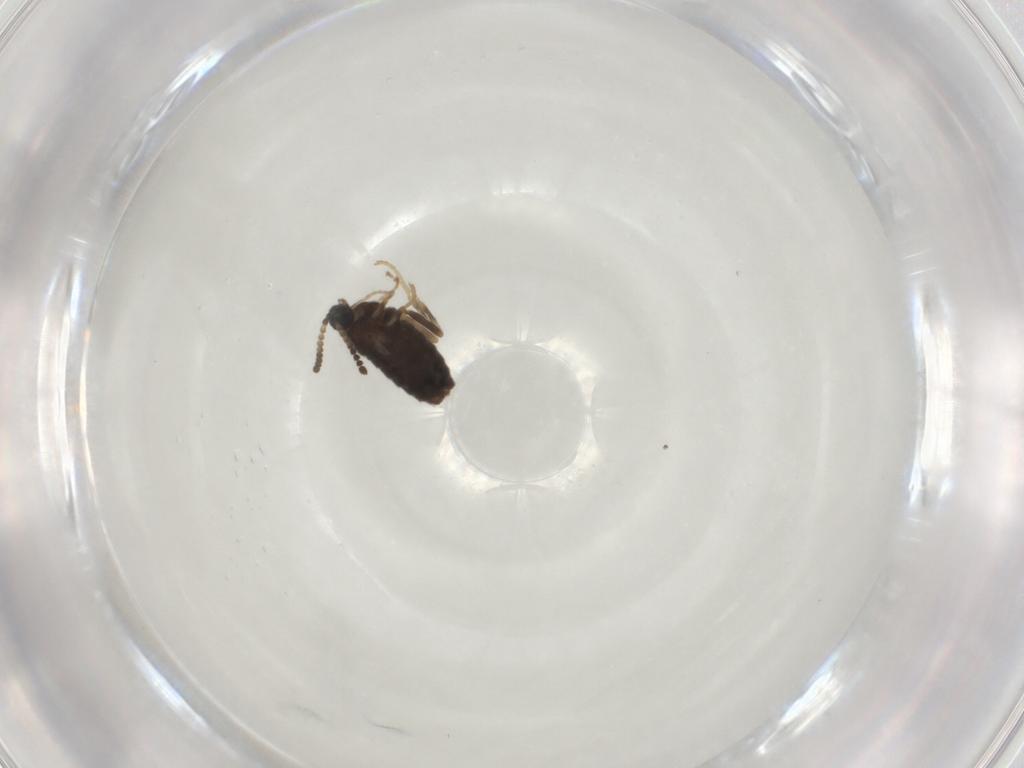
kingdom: Animalia
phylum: Arthropoda
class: Insecta
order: Diptera
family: Scatopsidae
